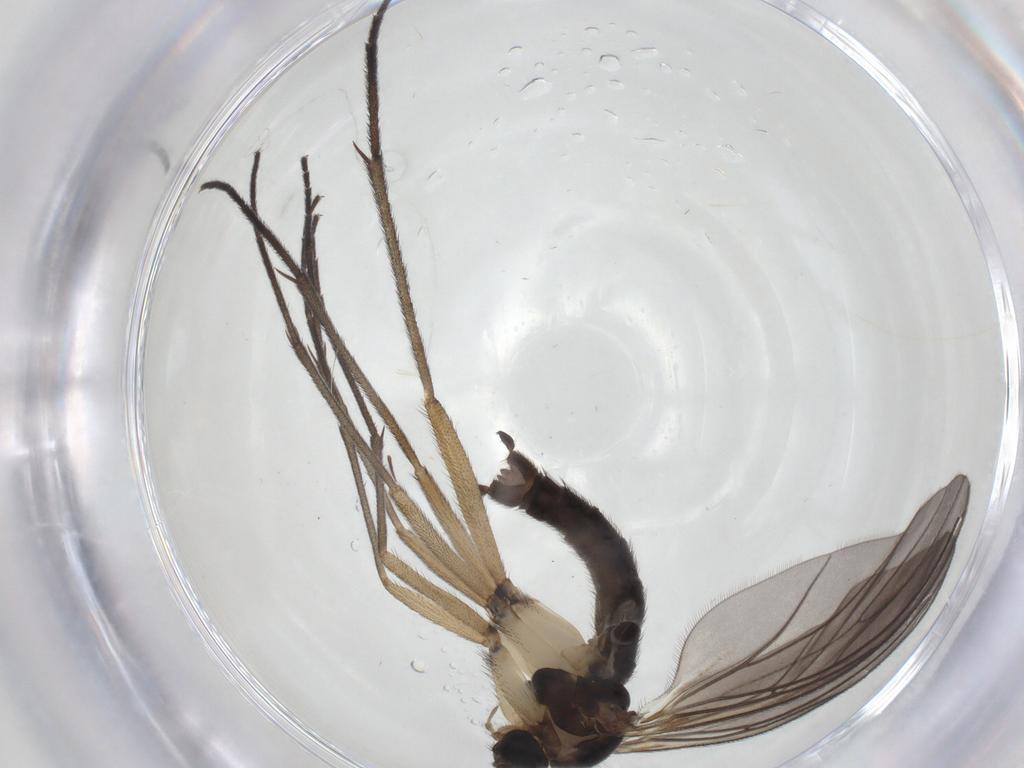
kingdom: Animalia
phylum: Arthropoda
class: Insecta
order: Diptera
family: Sciaridae
